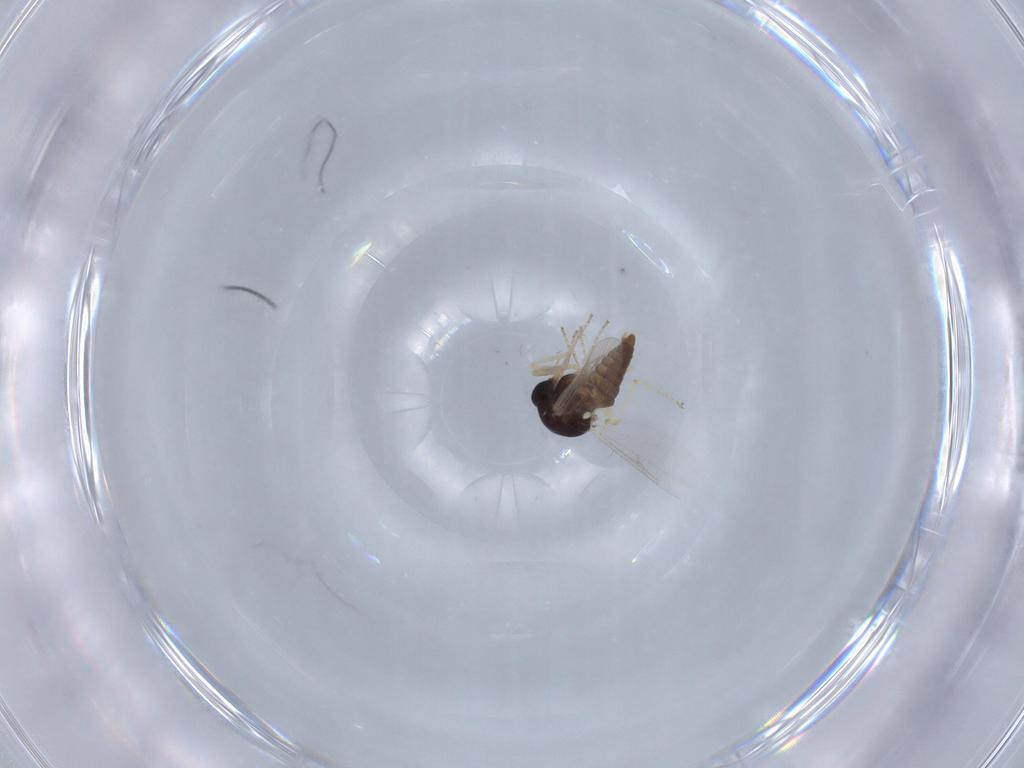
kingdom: Animalia
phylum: Arthropoda
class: Insecta
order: Diptera
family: Ceratopogonidae
